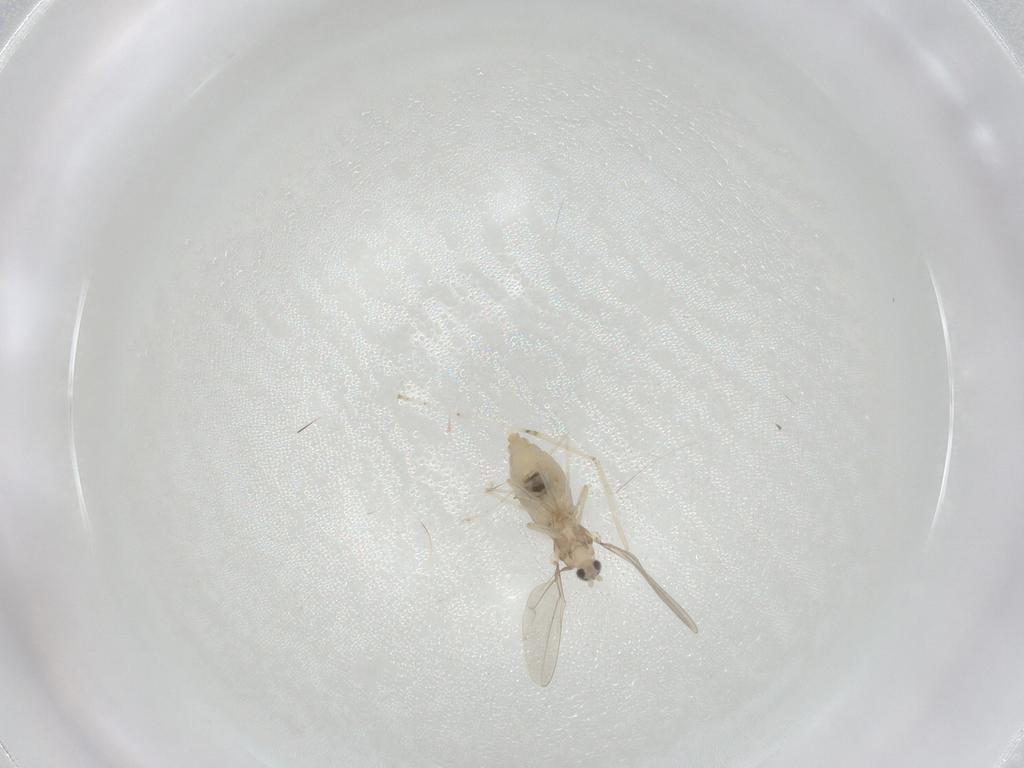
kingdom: Animalia
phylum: Arthropoda
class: Insecta
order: Diptera
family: Cecidomyiidae
